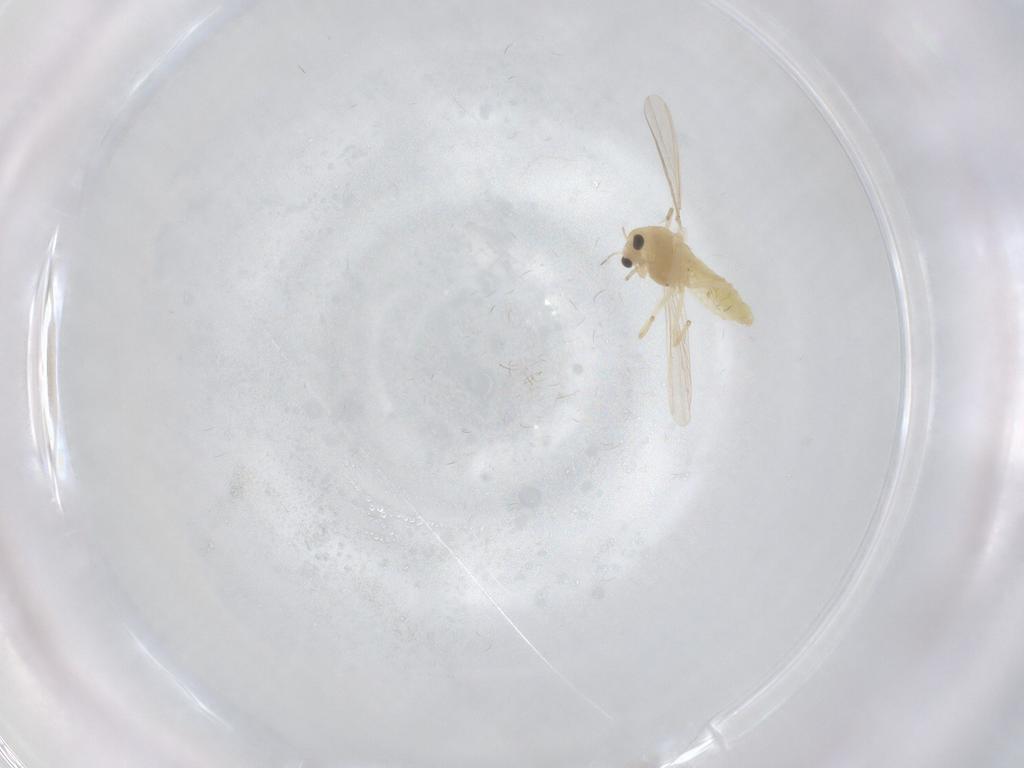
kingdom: Animalia
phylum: Arthropoda
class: Insecta
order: Diptera
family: Chironomidae
